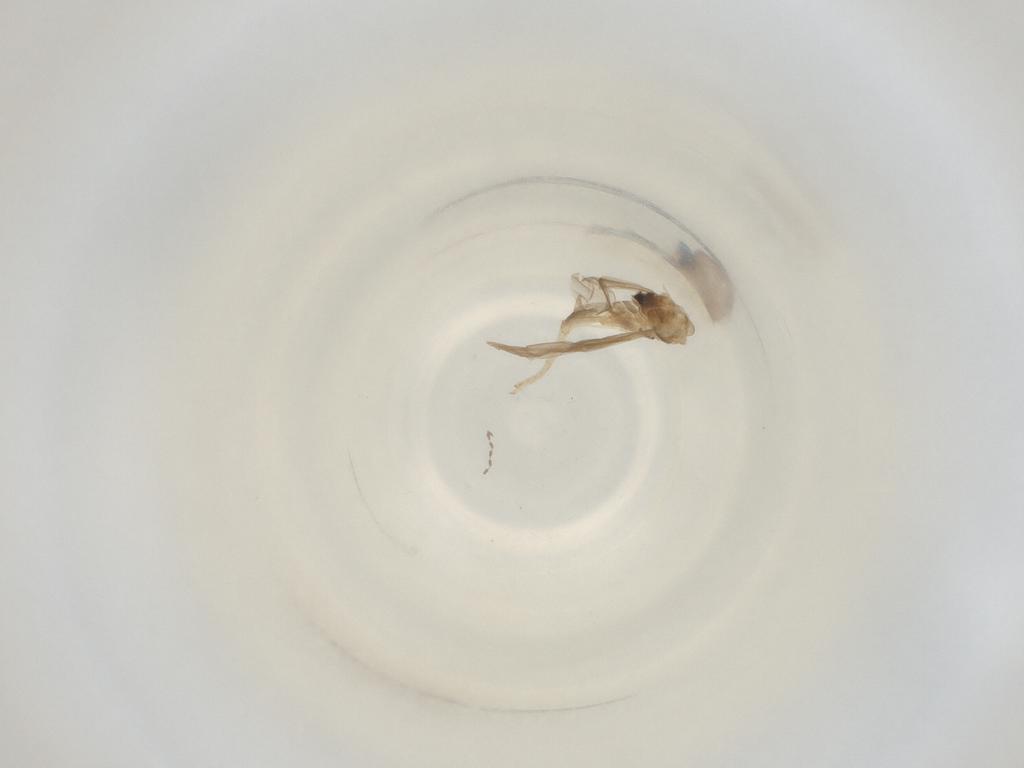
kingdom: Animalia
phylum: Arthropoda
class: Insecta
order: Diptera
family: Cecidomyiidae
